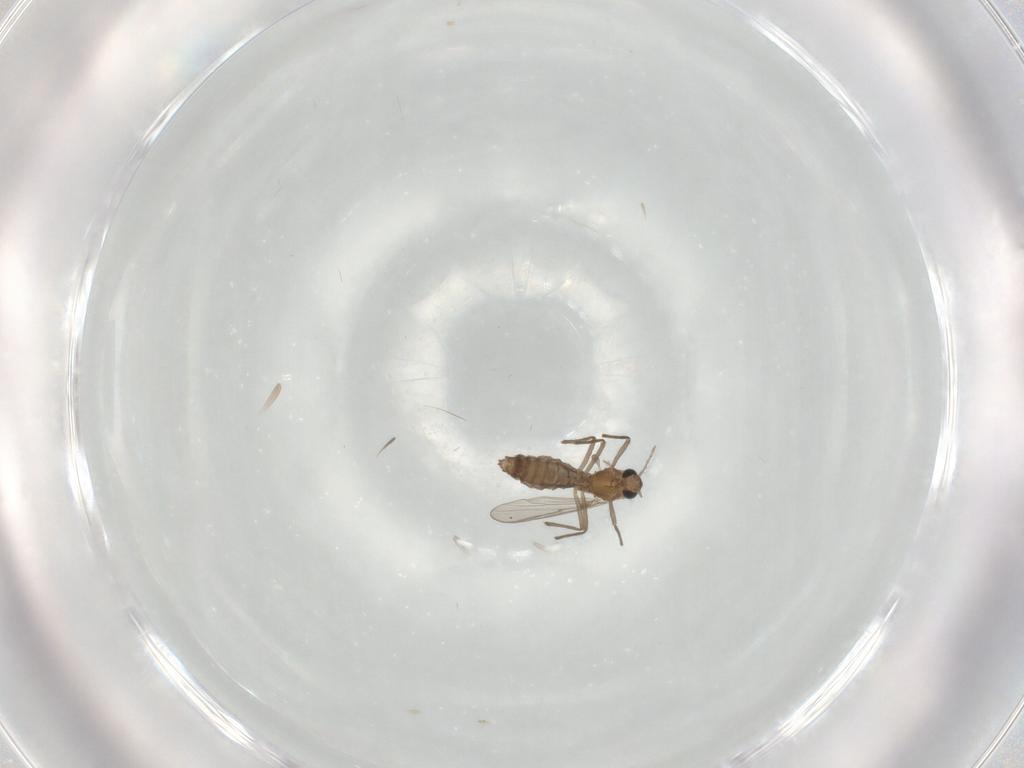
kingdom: Animalia
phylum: Arthropoda
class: Insecta
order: Diptera
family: Chironomidae
